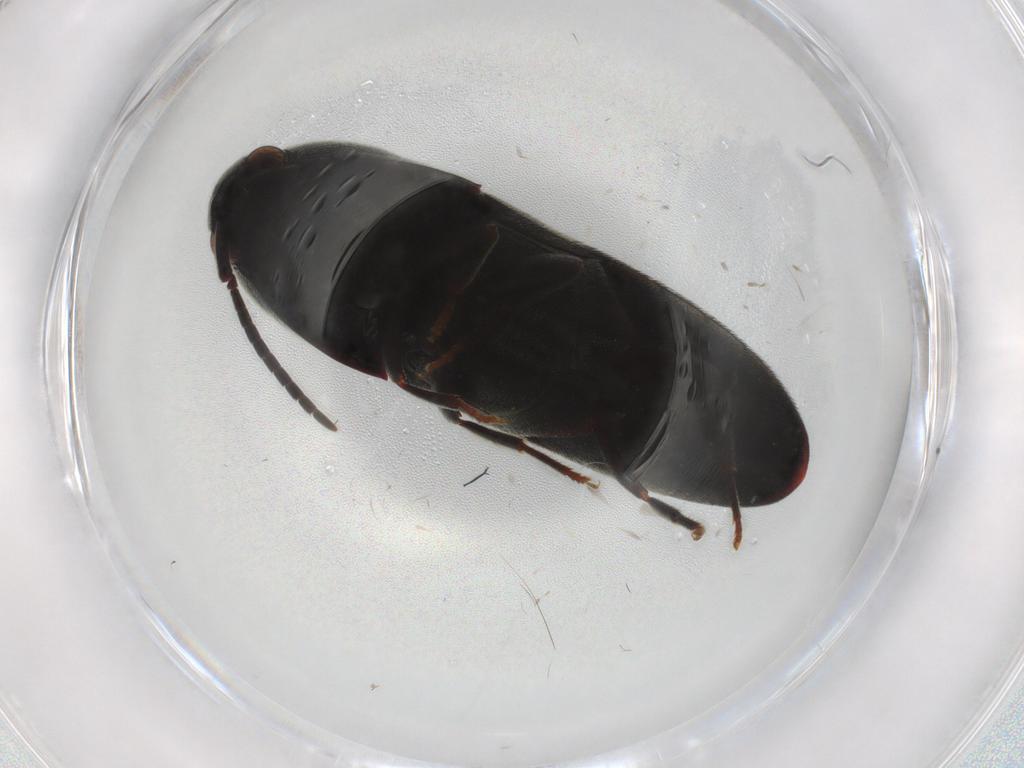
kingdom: Animalia
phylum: Arthropoda
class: Insecta
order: Coleoptera
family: Eucnemidae
